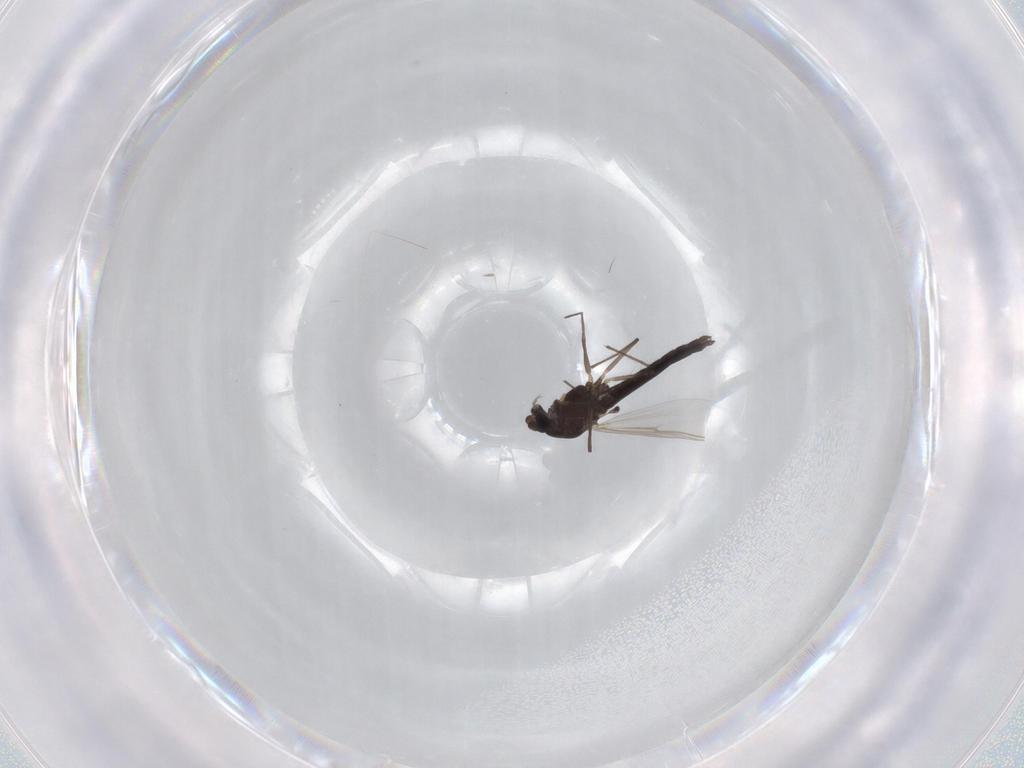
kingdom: Animalia
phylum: Arthropoda
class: Insecta
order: Diptera
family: Chironomidae
